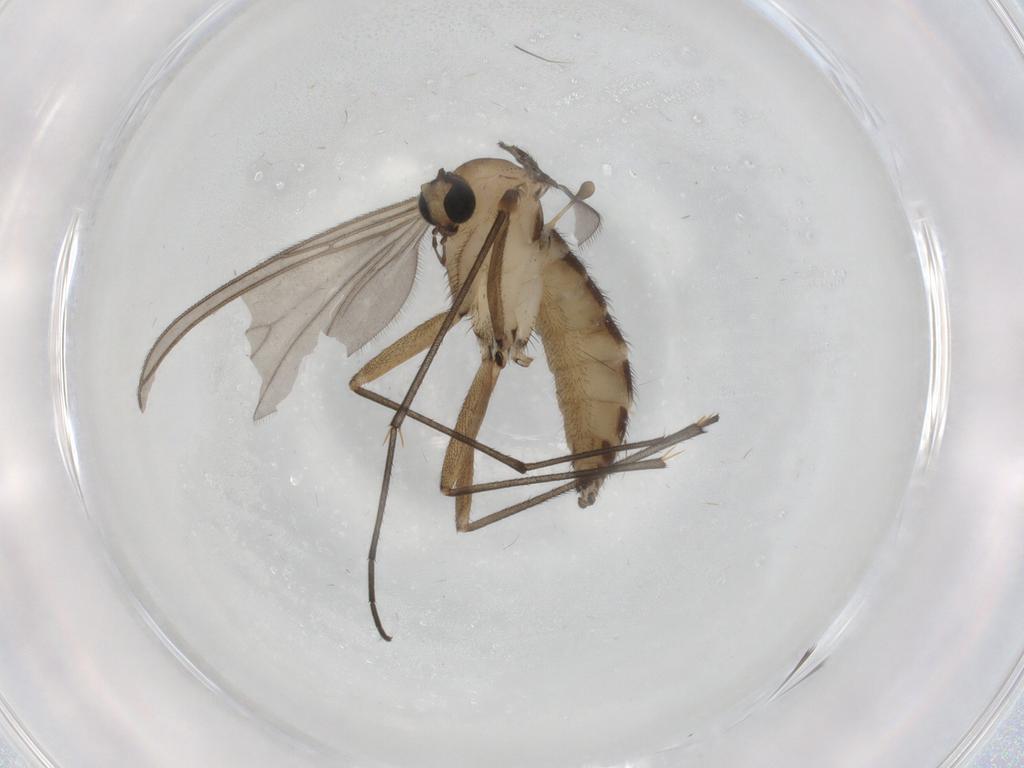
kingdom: Animalia
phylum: Arthropoda
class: Insecta
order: Diptera
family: Sciaridae
